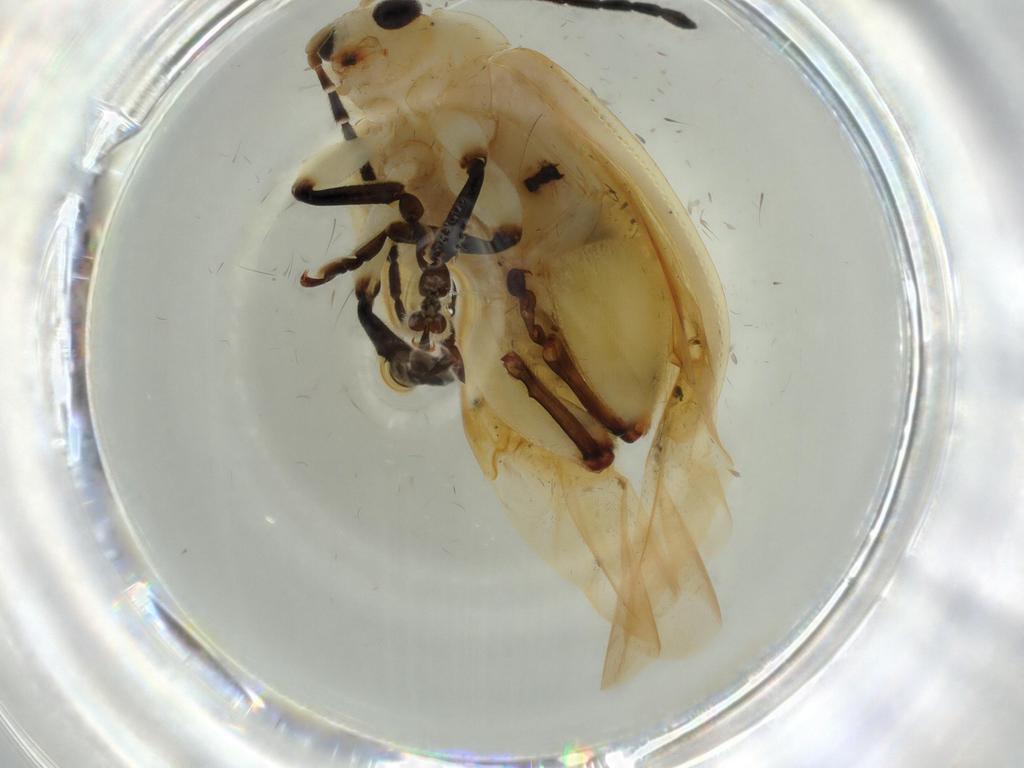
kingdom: Animalia
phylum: Arthropoda
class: Insecta
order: Coleoptera
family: Chrysomelidae
